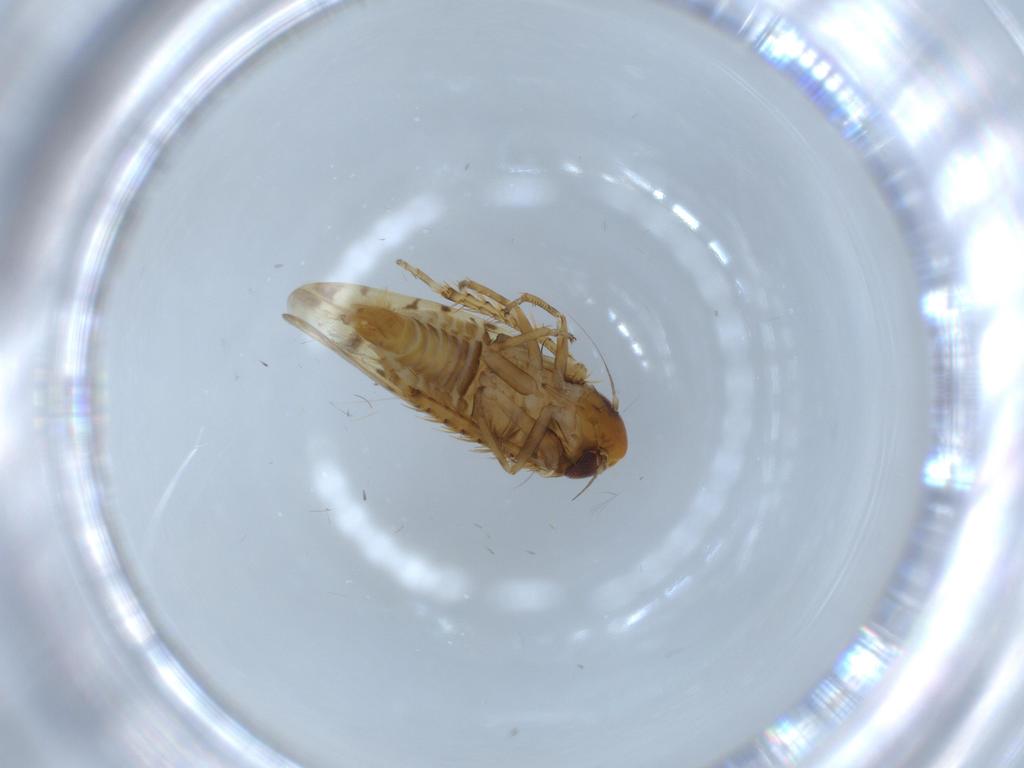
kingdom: Animalia
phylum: Arthropoda
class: Insecta
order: Hemiptera
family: Cicadellidae
